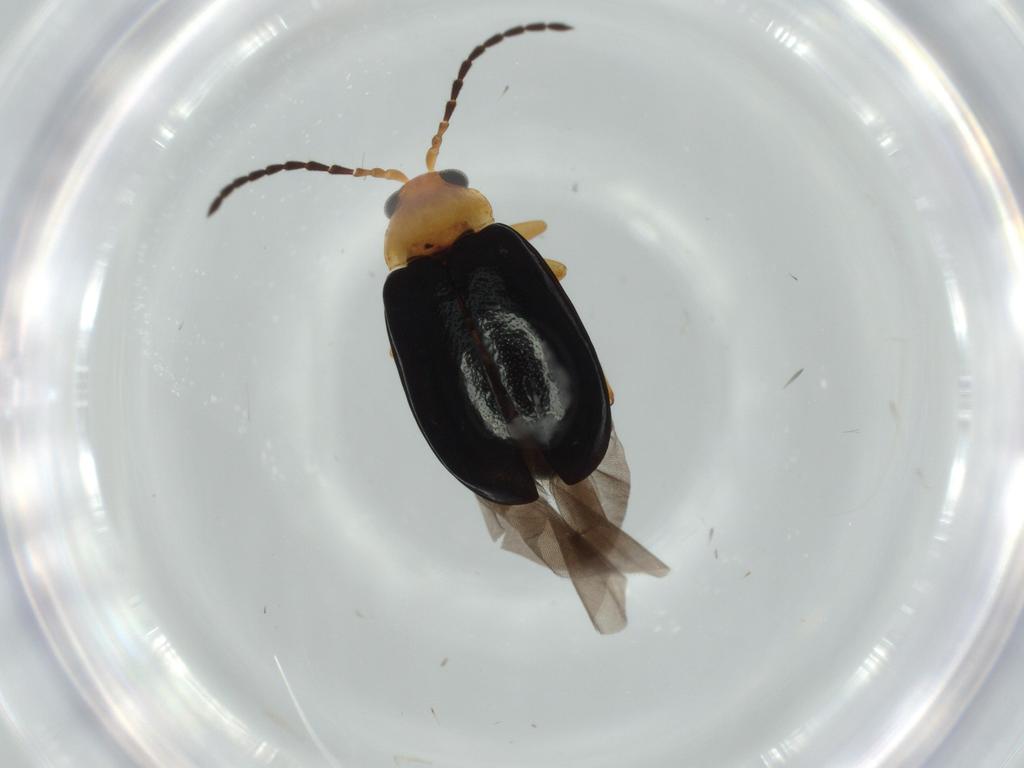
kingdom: Animalia
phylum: Arthropoda
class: Insecta
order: Coleoptera
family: Chrysomelidae
